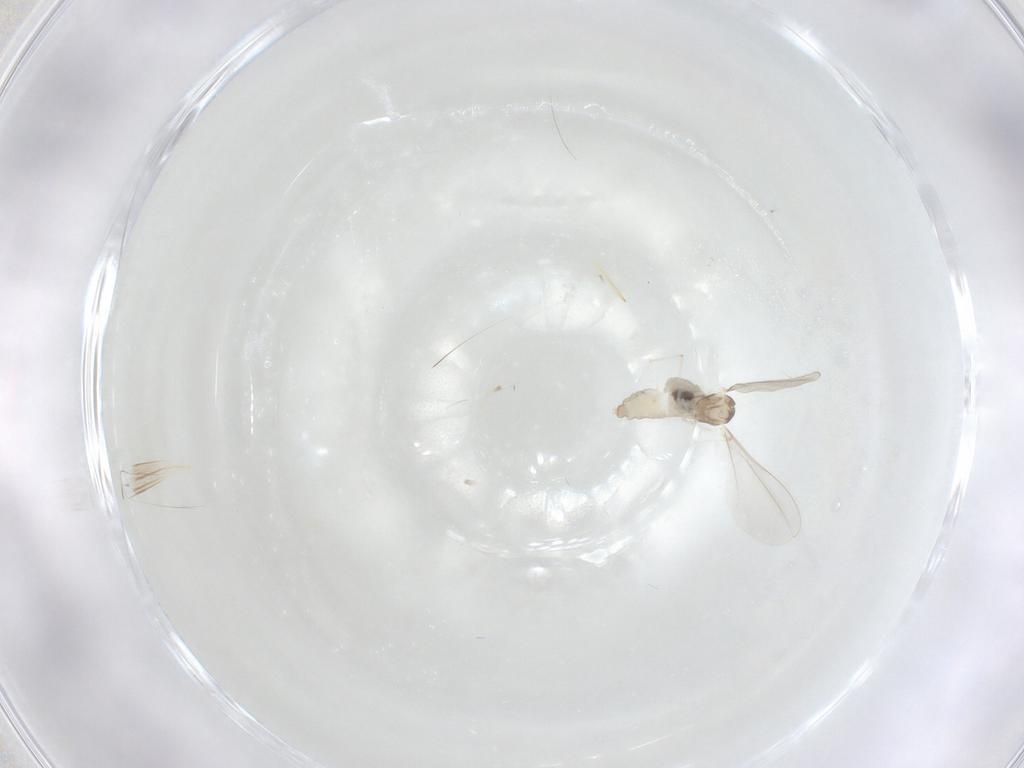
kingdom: Animalia
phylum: Arthropoda
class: Insecta
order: Diptera
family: Cecidomyiidae
